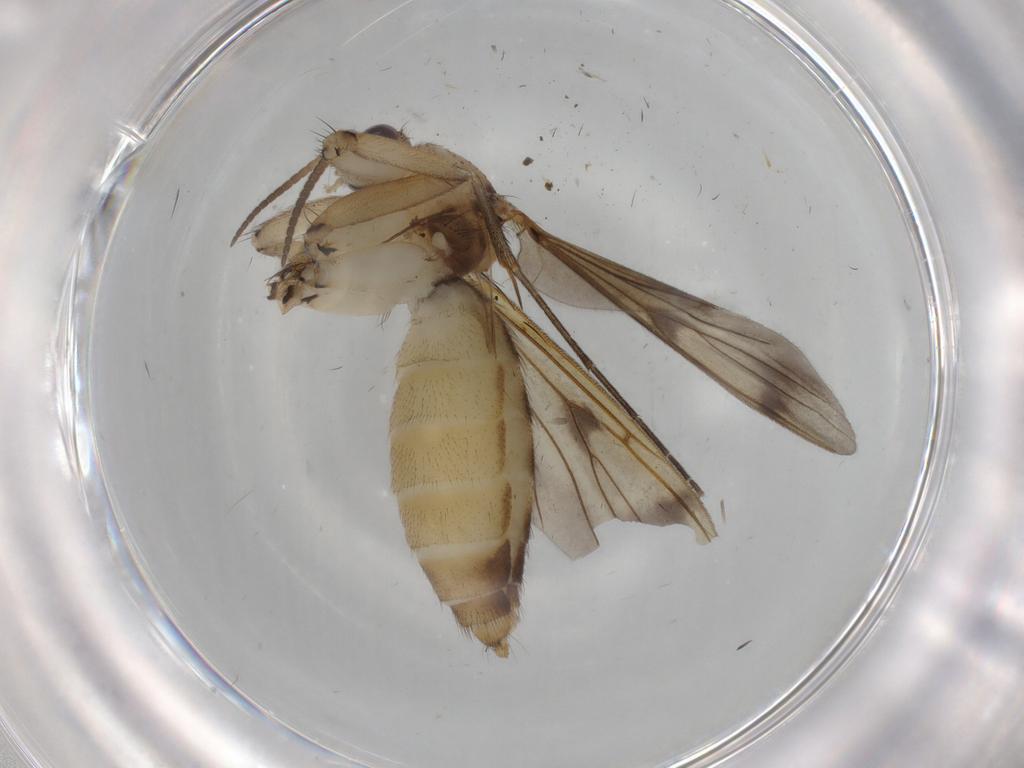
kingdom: Animalia
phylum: Arthropoda
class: Insecta
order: Diptera
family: Mycetophilidae
